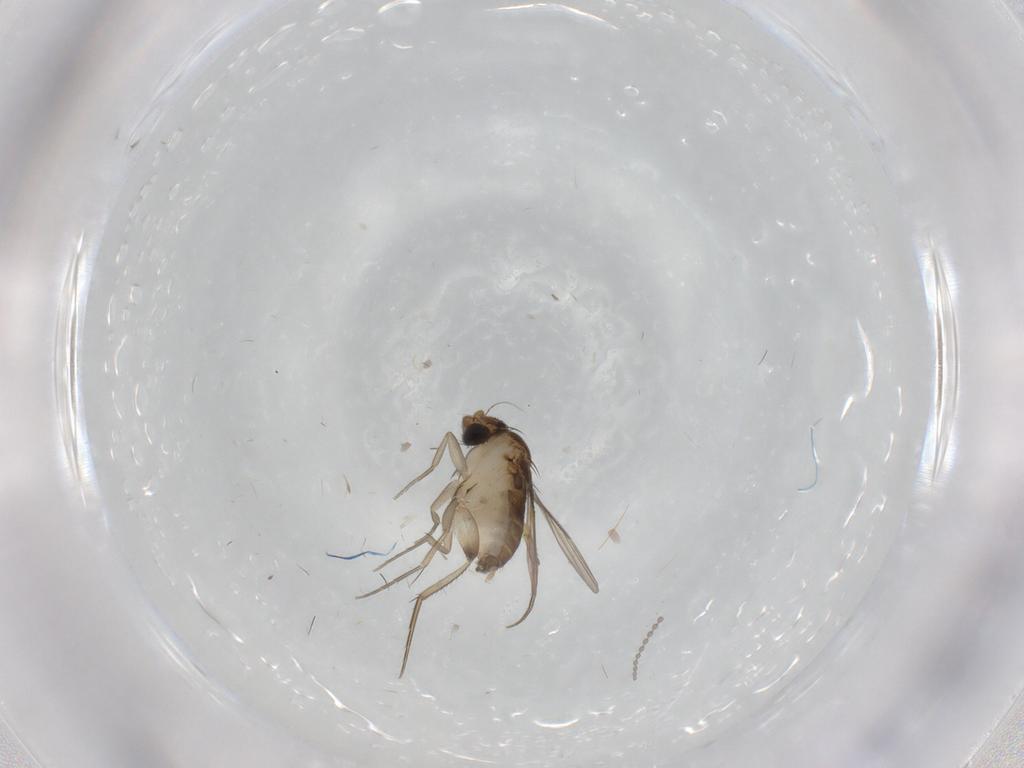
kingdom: Animalia
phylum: Arthropoda
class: Insecta
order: Diptera
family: Phoridae
